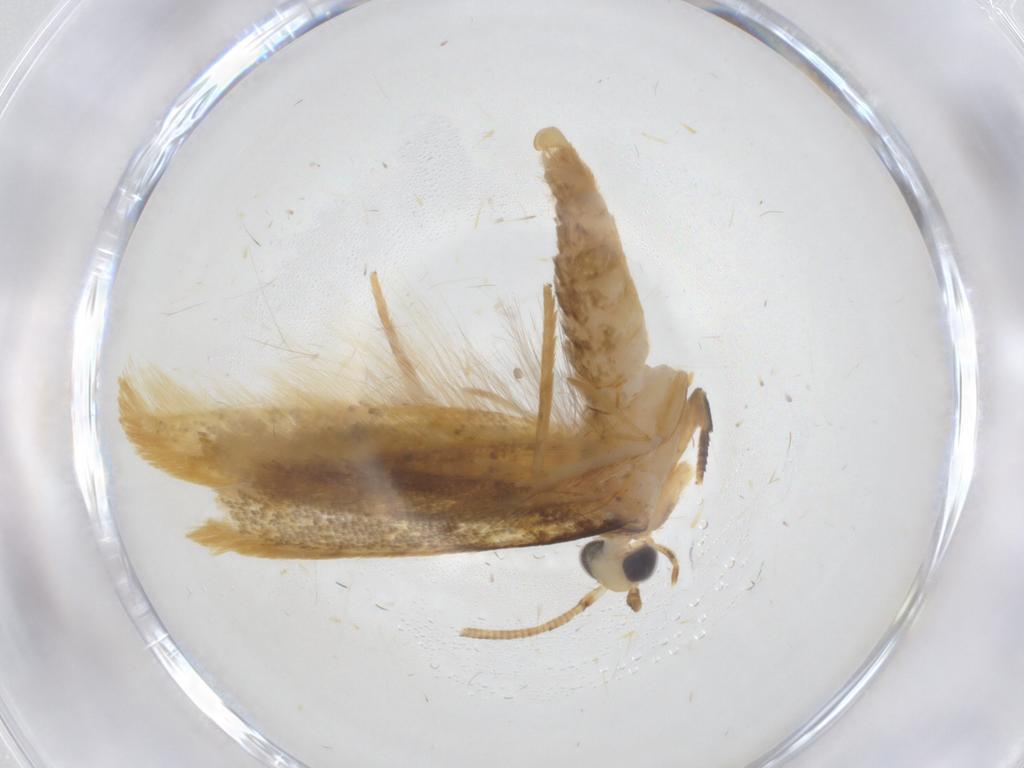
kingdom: Animalia
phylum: Arthropoda
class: Insecta
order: Lepidoptera
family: Tineidae
